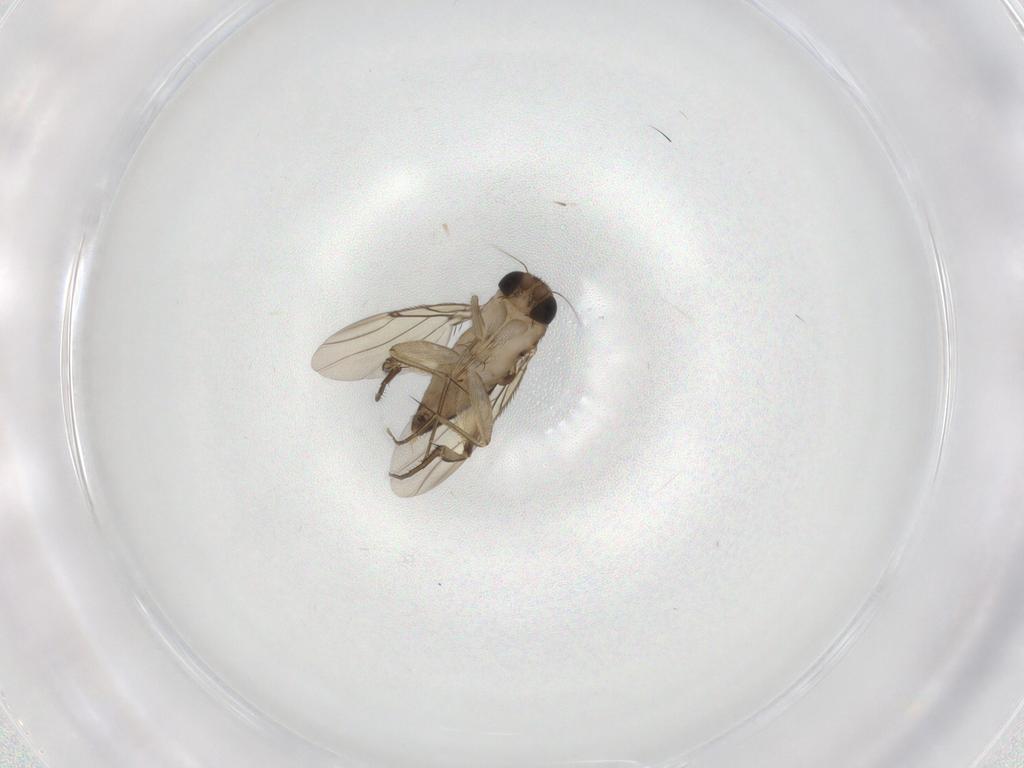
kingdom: Animalia
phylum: Arthropoda
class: Insecta
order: Diptera
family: Phoridae
